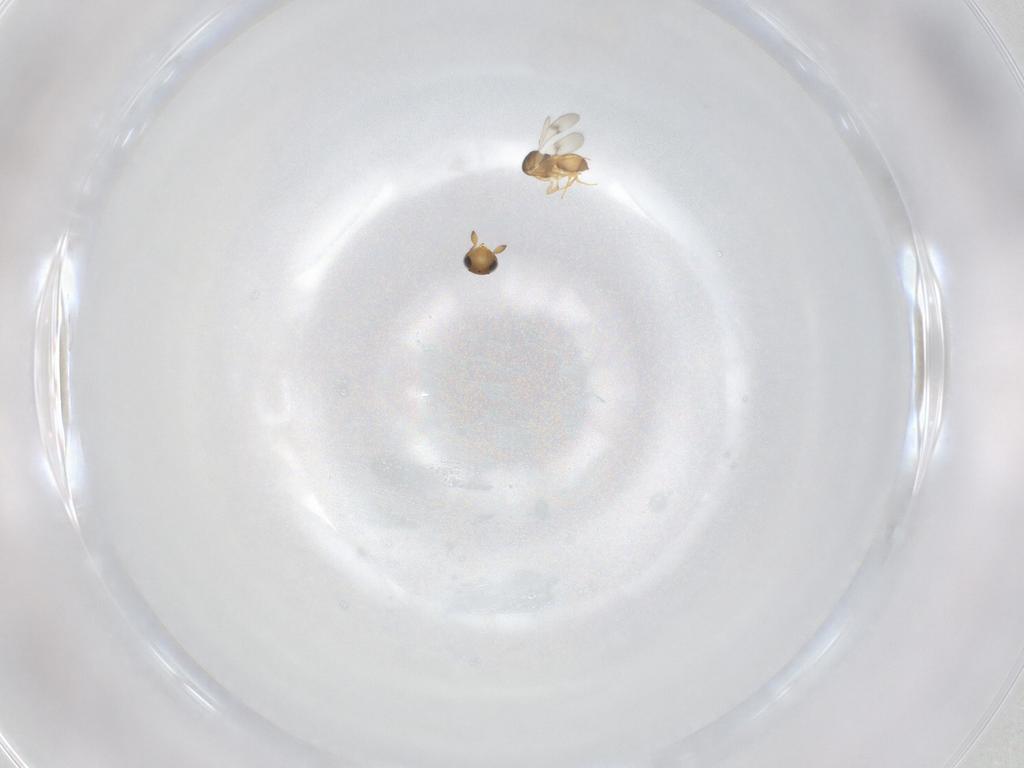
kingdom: Animalia
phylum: Arthropoda
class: Insecta
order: Hymenoptera
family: Scelionidae
